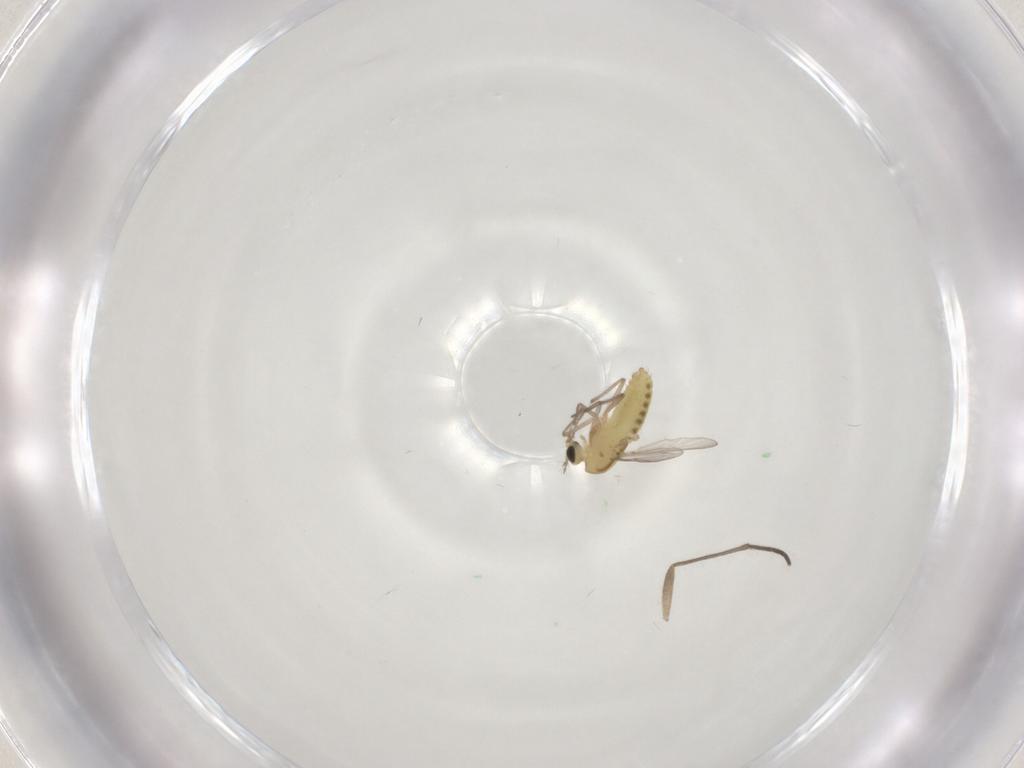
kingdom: Animalia
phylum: Arthropoda
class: Insecta
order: Diptera
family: Chironomidae
